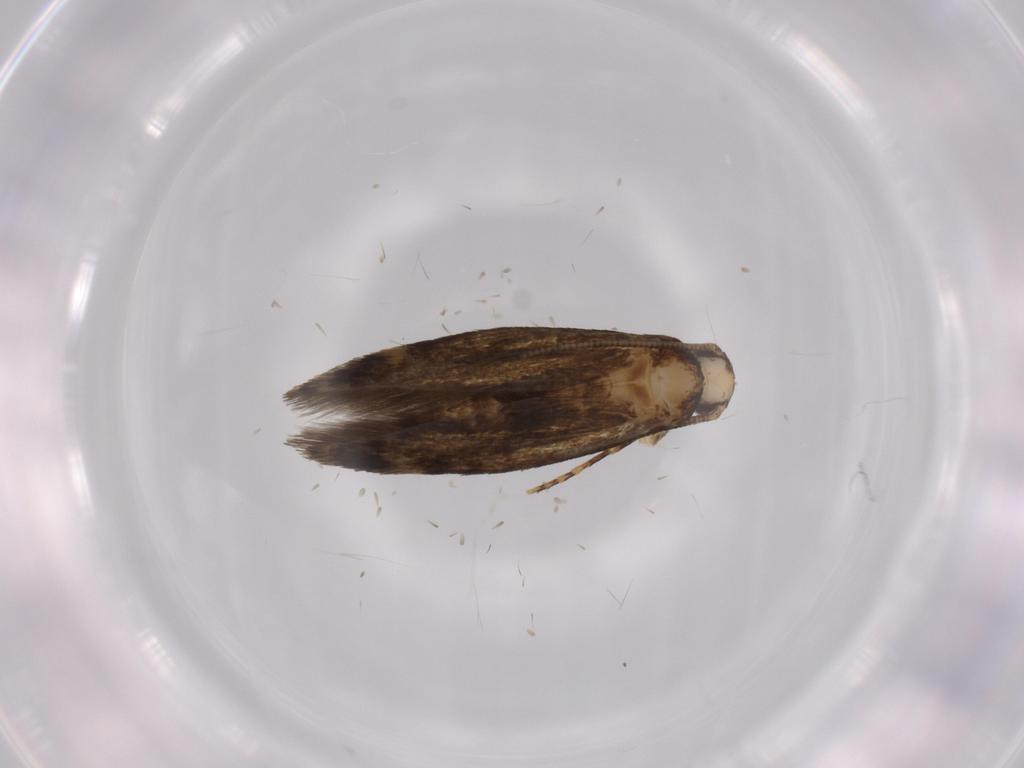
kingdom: Animalia
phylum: Arthropoda
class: Insecta
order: Lepidoptera
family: Tineidae
